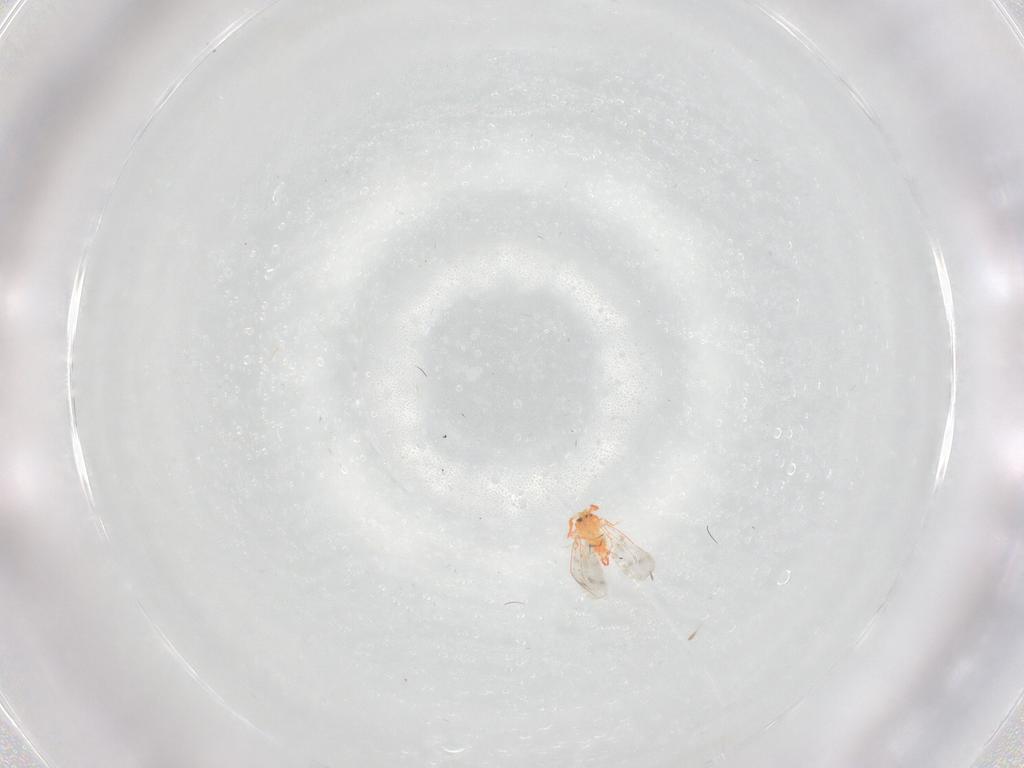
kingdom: Animalia
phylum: Arthropoda
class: Insecta
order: Hemiptera
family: Aleyrodidae
